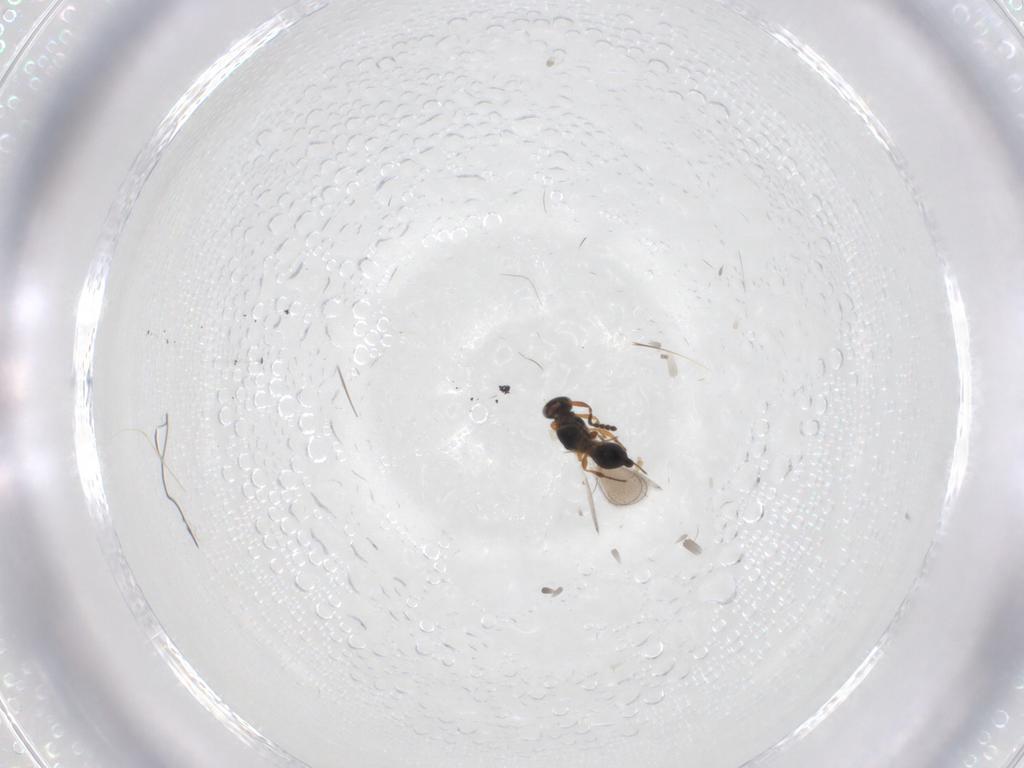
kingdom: Animalia
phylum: Arthropoda
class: Insecta
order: Hymenoptera
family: Platygastridae
